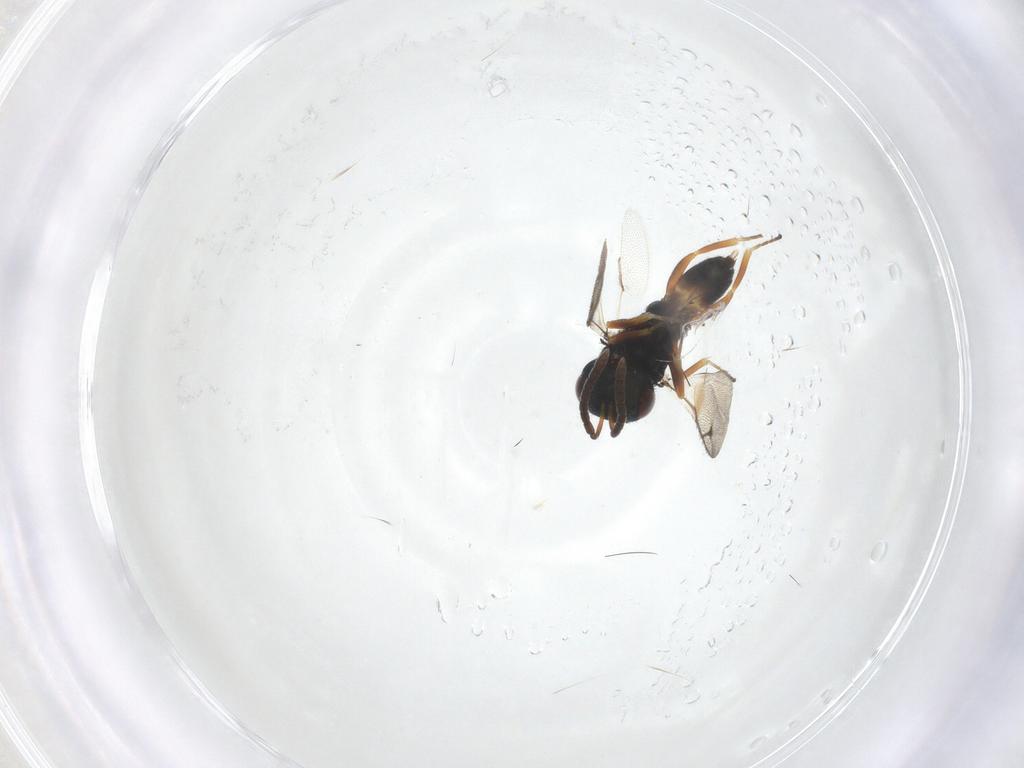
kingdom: Animalia
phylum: Arthropoda
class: Insecta
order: Hymenoptera
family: Pteromalidae
